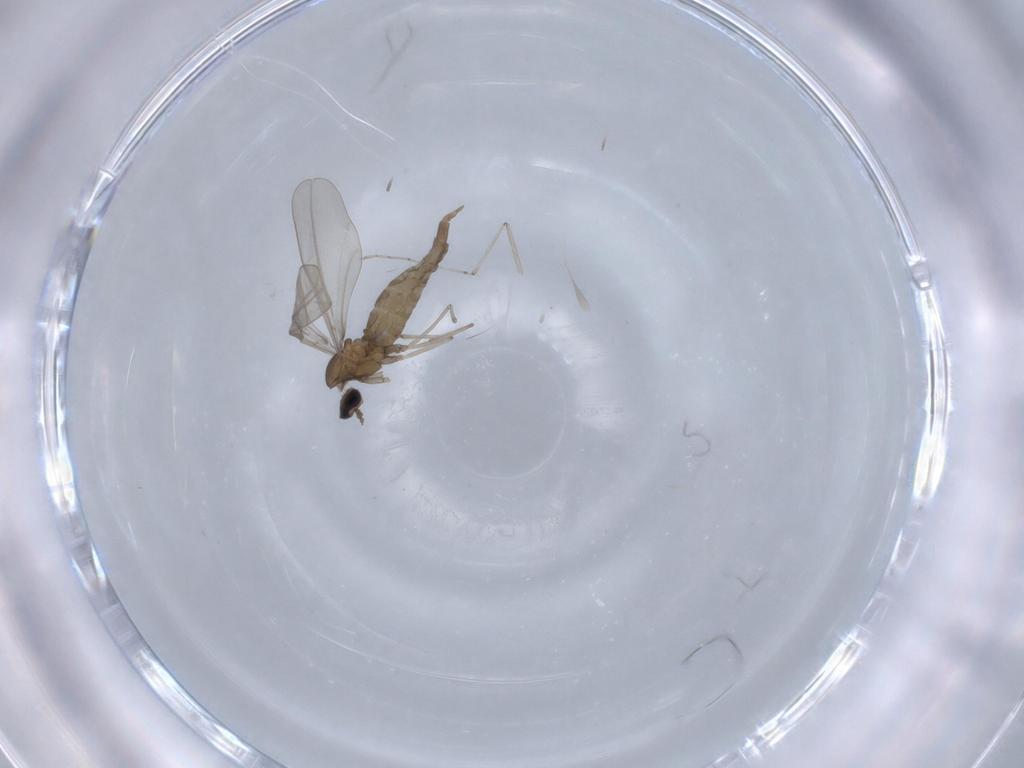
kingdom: Animalia
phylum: Arthropoda
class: Insecta
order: Diptera
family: Cecidomyiidae
